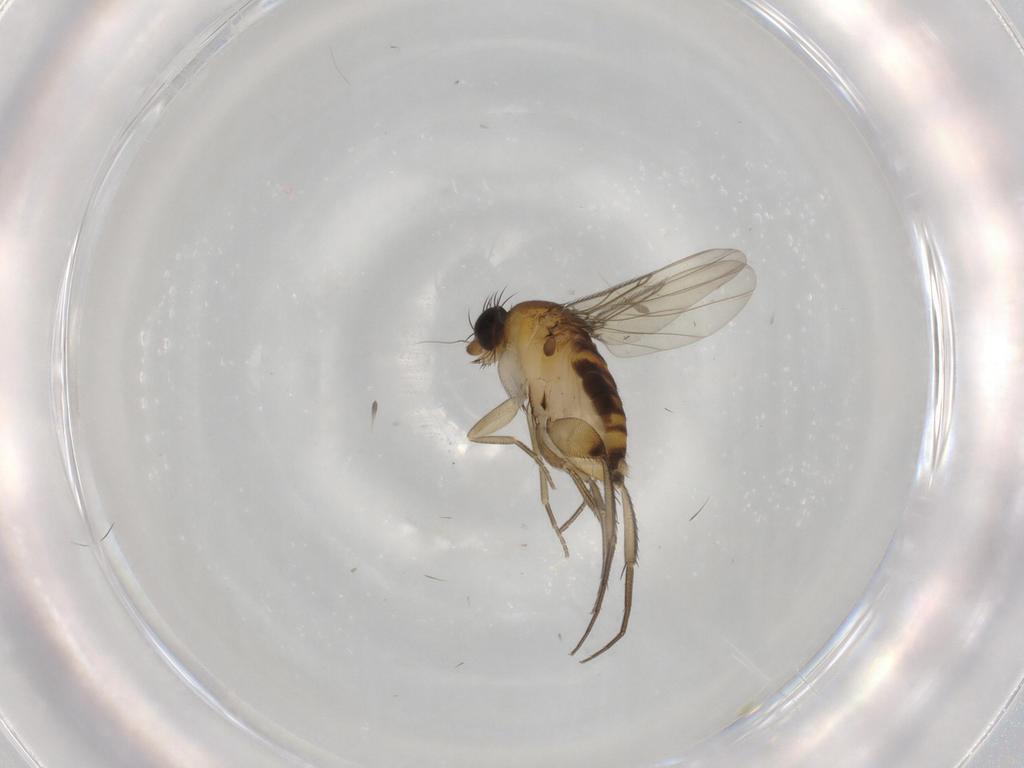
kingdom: Animalia
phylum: Arthropoda
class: Insecta
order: Diptera
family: Phoridae
